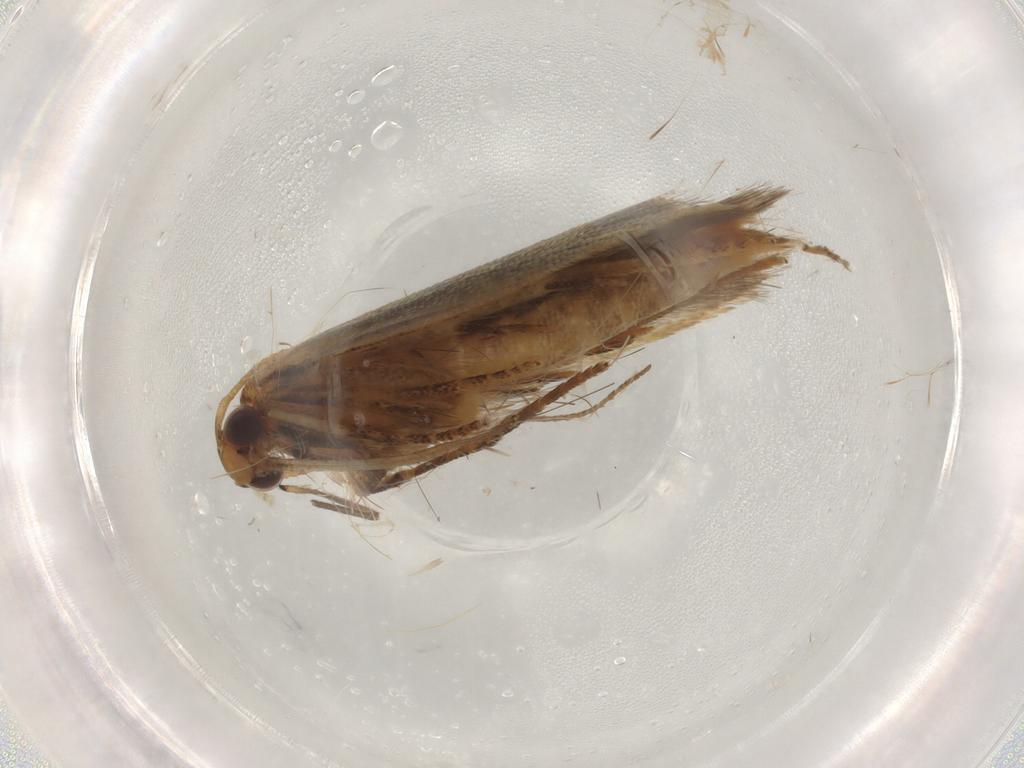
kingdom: Animalia
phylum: Arthropoda
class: Insecta
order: Lepidoptera
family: Gelechiidae
